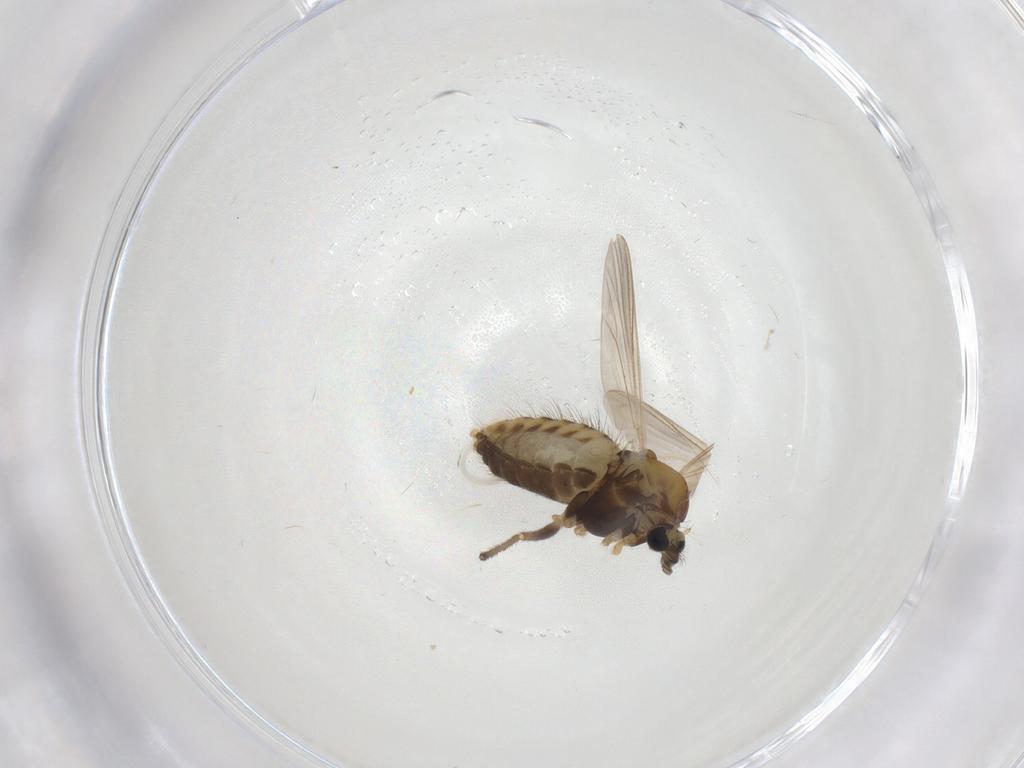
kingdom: Animalia
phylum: Arthropoda
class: Insecta
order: Diptera
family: Chironomidae
